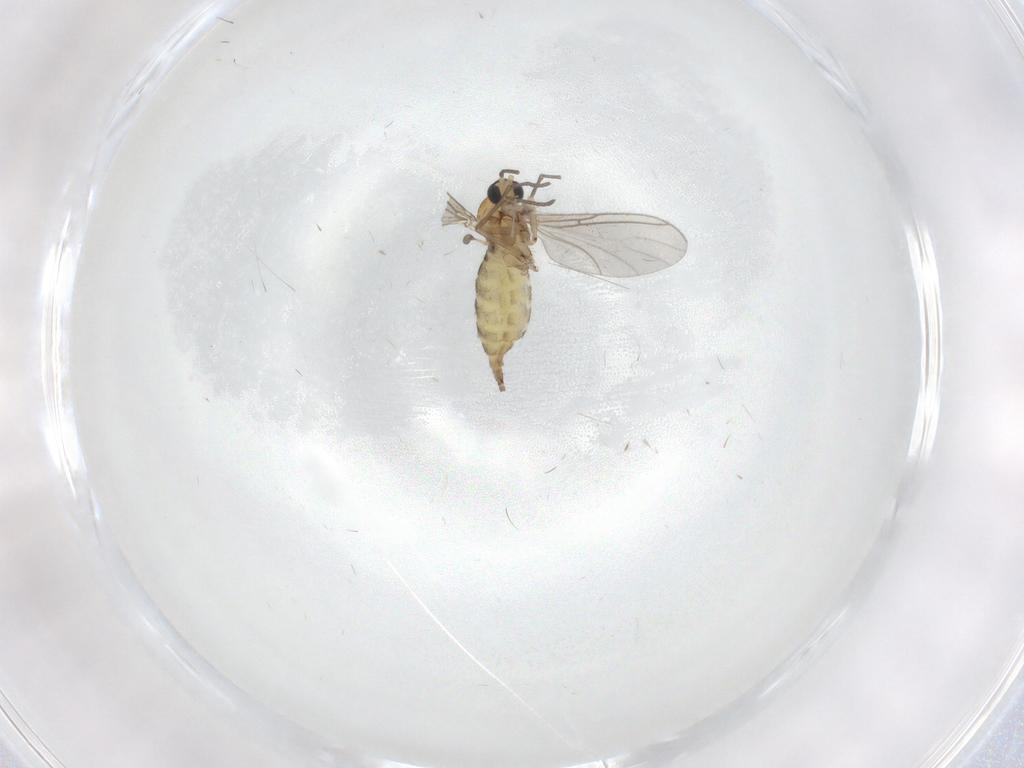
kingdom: Animalia
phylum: Arthropoda
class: Insecta
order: Diptera
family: Sciaridae
